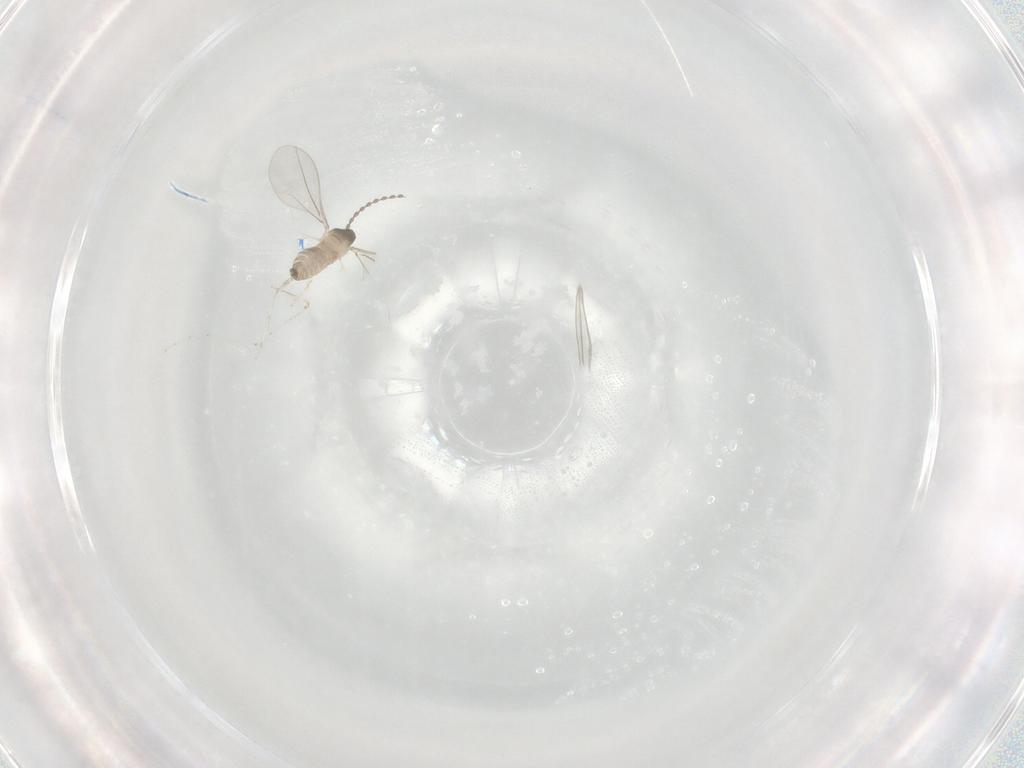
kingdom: Animalia
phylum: Arthropoda
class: Insecta
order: Diptera
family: Cecidomyiidae
